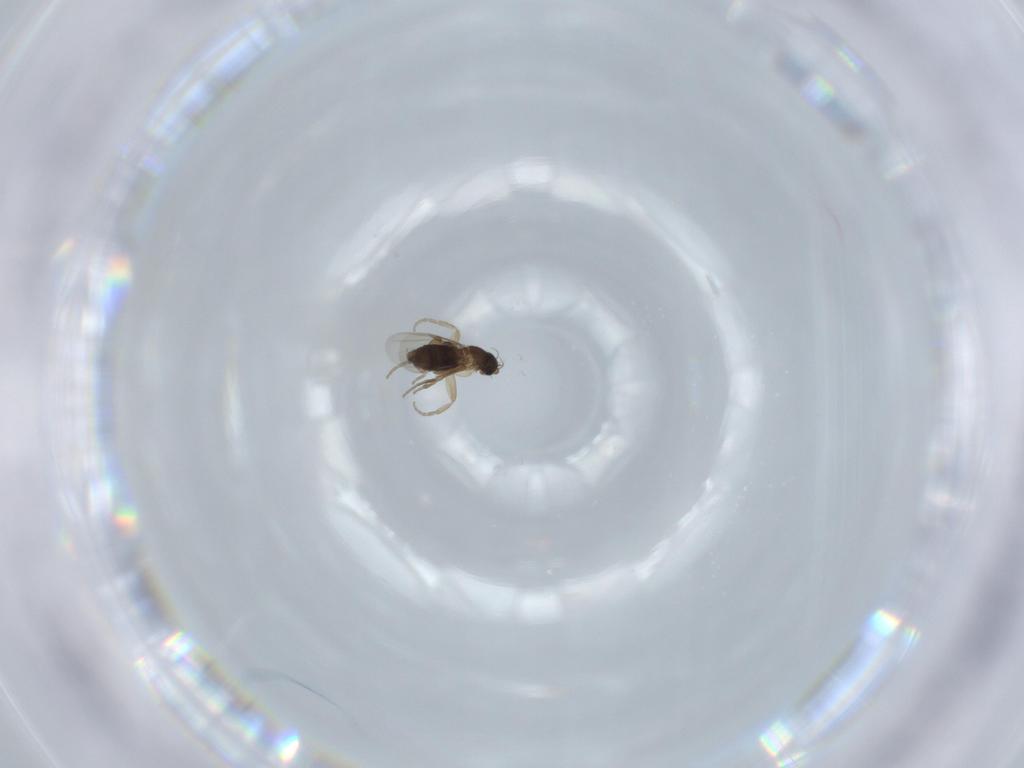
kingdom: Animalia
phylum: Arthropoda
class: Insecta
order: Diptera
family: Phoridae
